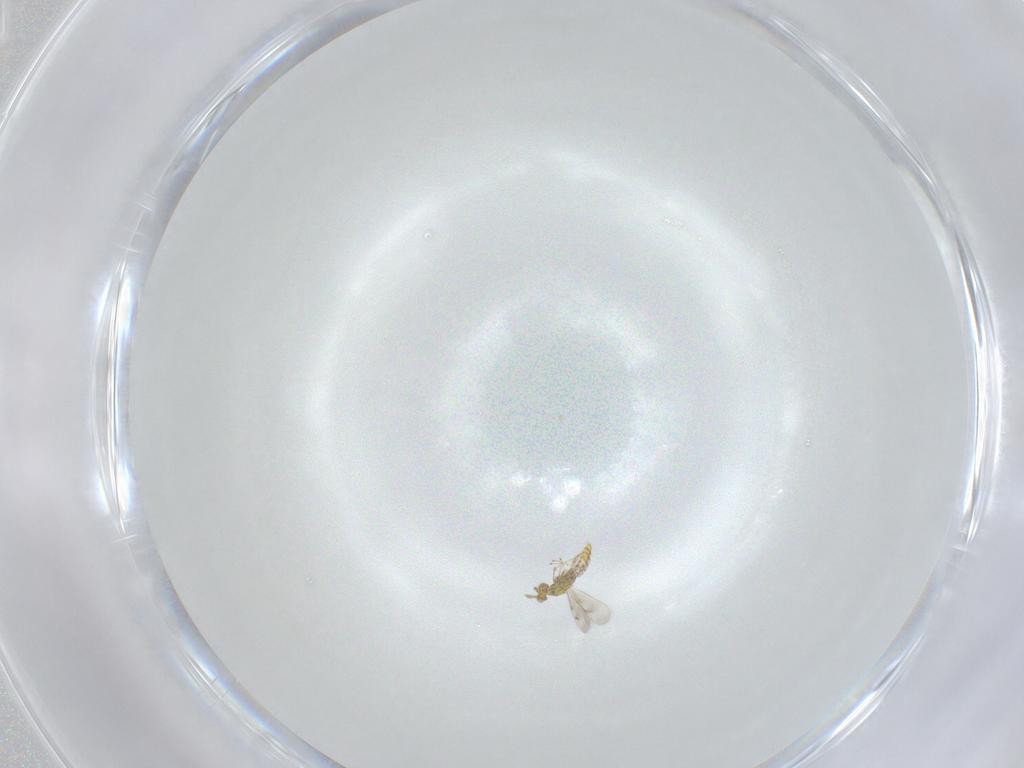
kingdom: Animalia
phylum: Arthropoda
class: Insecta
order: Hymenoptera
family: Eulophidae
